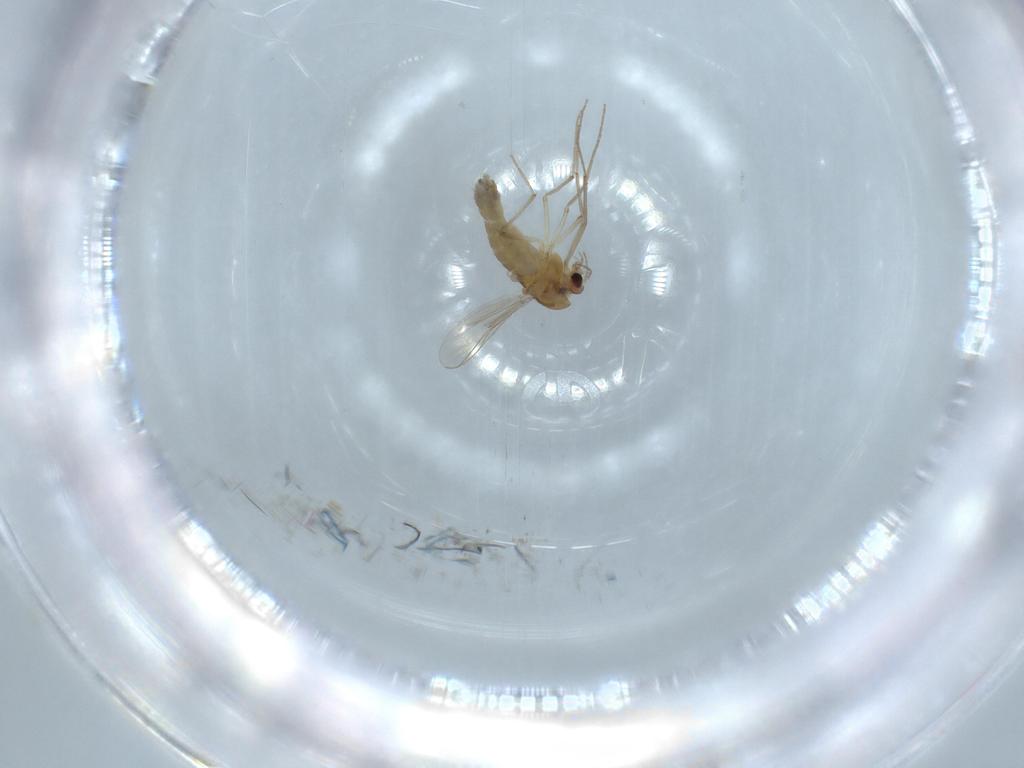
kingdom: Animalia
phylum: Arthropoda
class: Insecta
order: Diptera
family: Chironomidae
